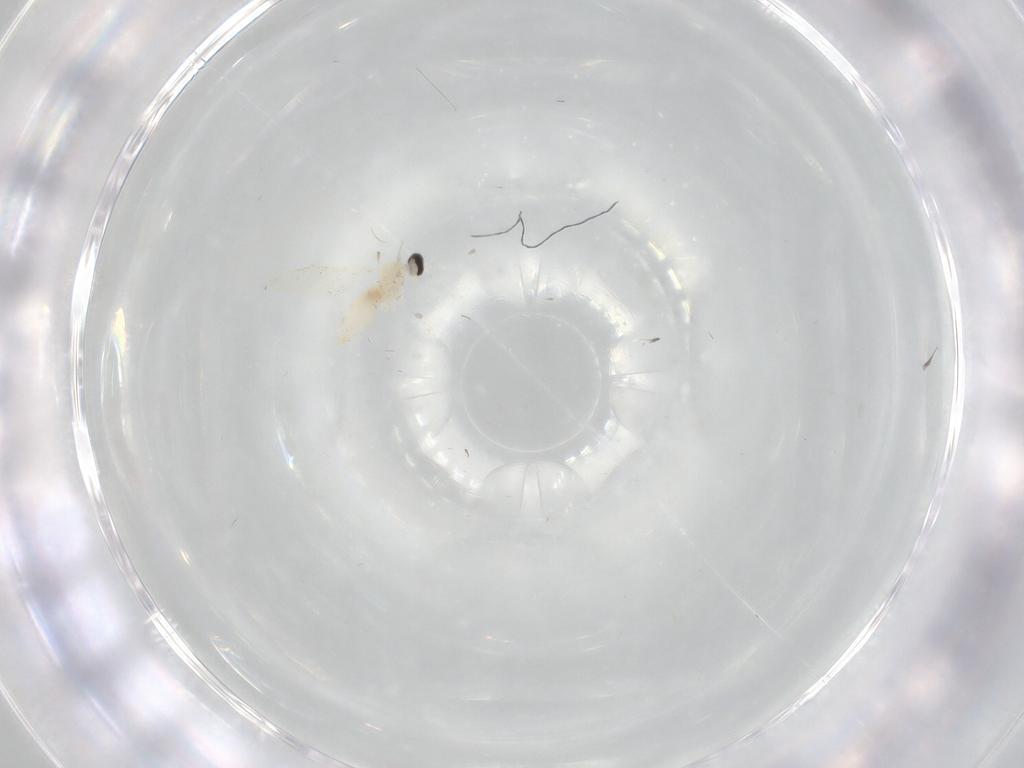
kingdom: Animalia
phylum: Arthropoda
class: Insecta
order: Diptera
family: Cecidomyiidae
